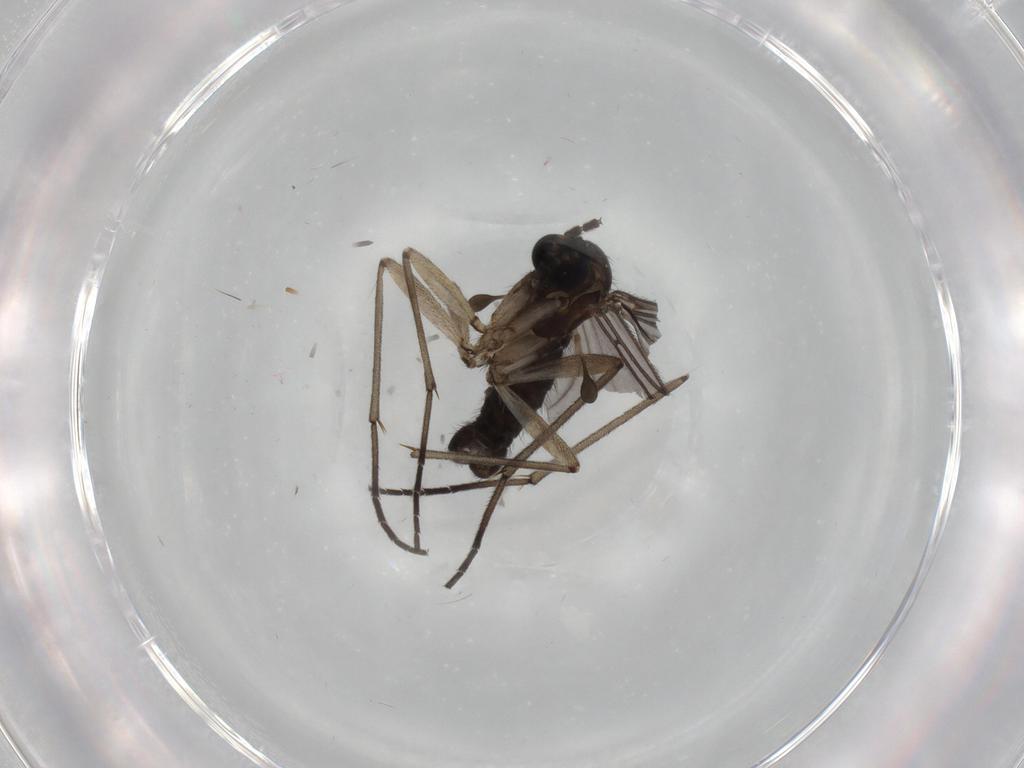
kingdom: Animalia
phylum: Arthropoda
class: Insecta
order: Diptera
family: Sciaridae
